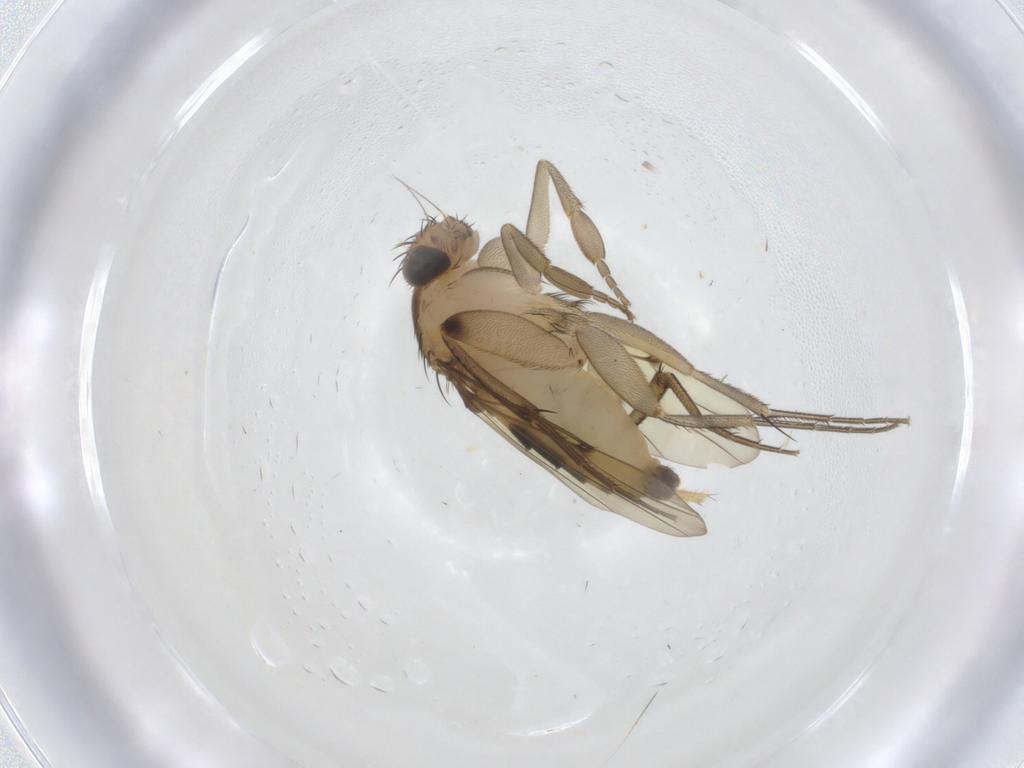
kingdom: Animalia
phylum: Arthropoda
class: Insecta
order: Diptera
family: Phoridae
